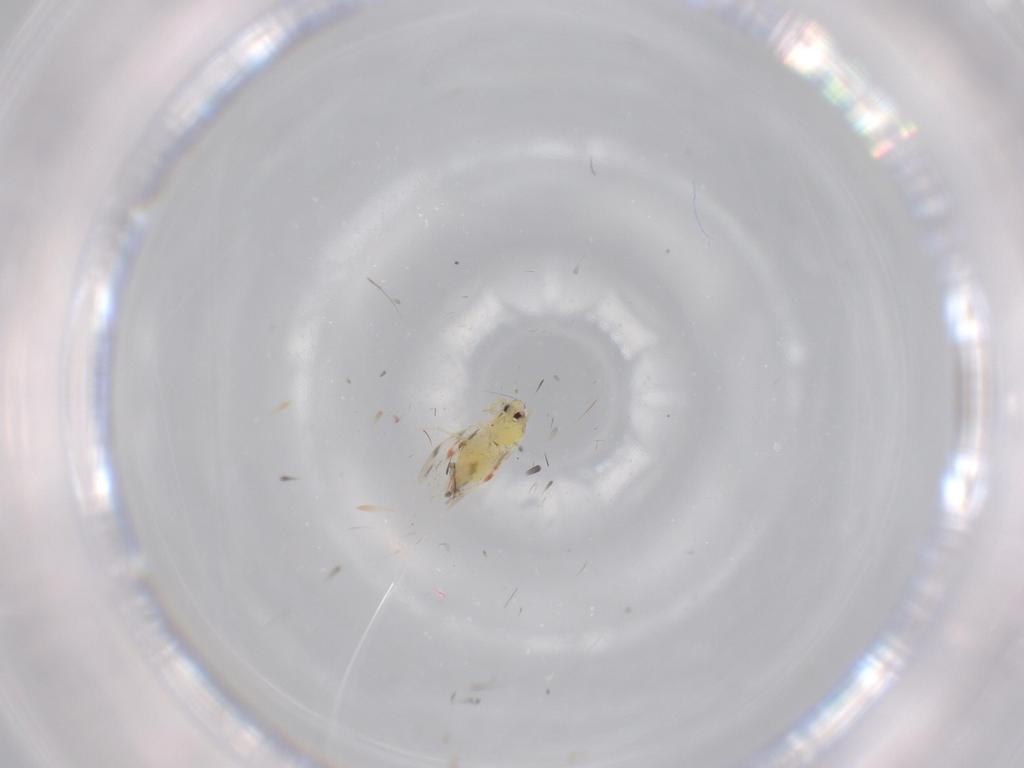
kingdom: Animalia
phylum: Arthropoda
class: Insecta
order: Hemiptera
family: Aleyrodidae
